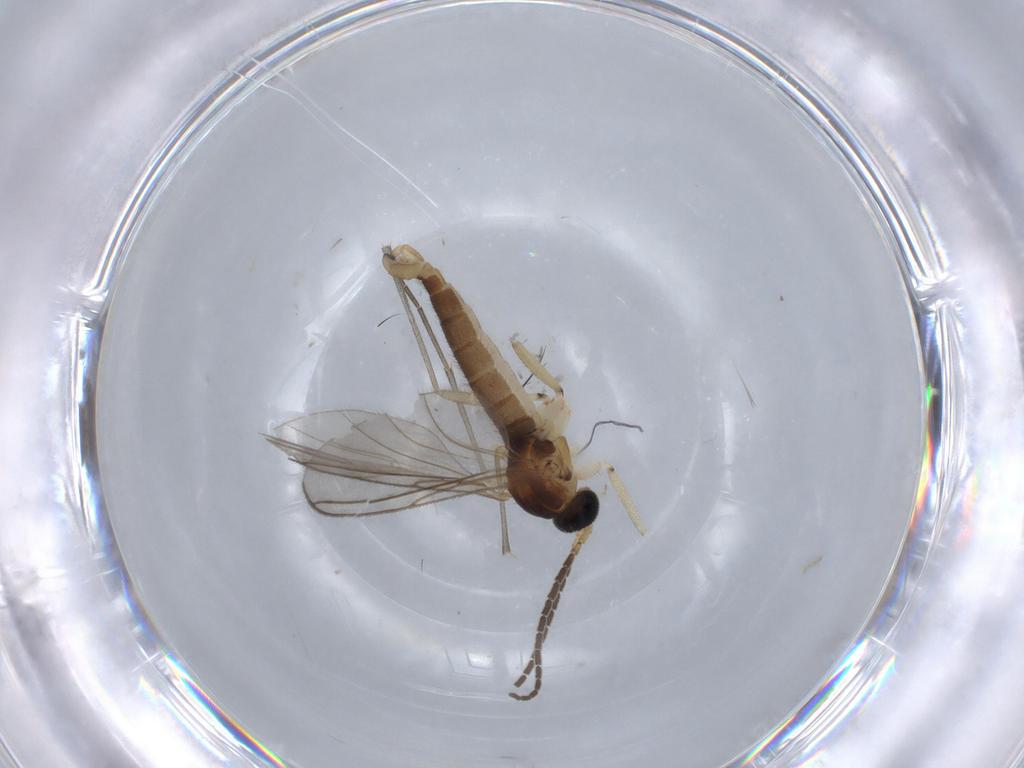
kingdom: Animalia
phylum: Arthropoda
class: Insecta
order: Diptera
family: Sciaridae
